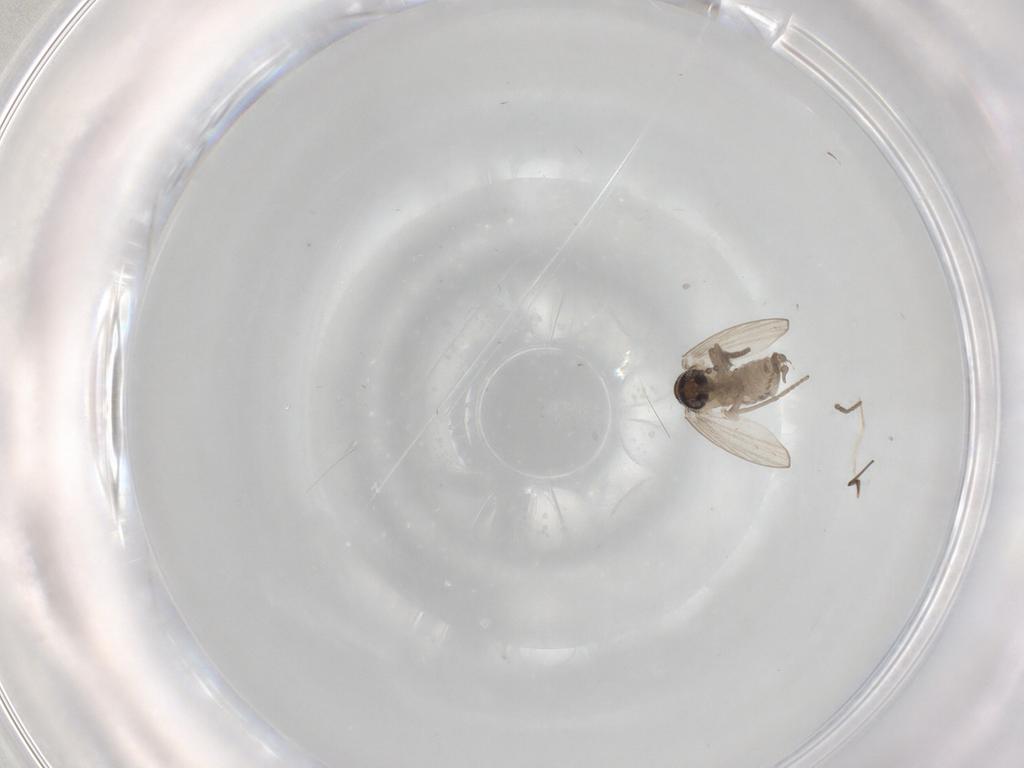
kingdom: Animalia
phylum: Arthropoda
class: Insecta
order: Diptera
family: Psychodidae
